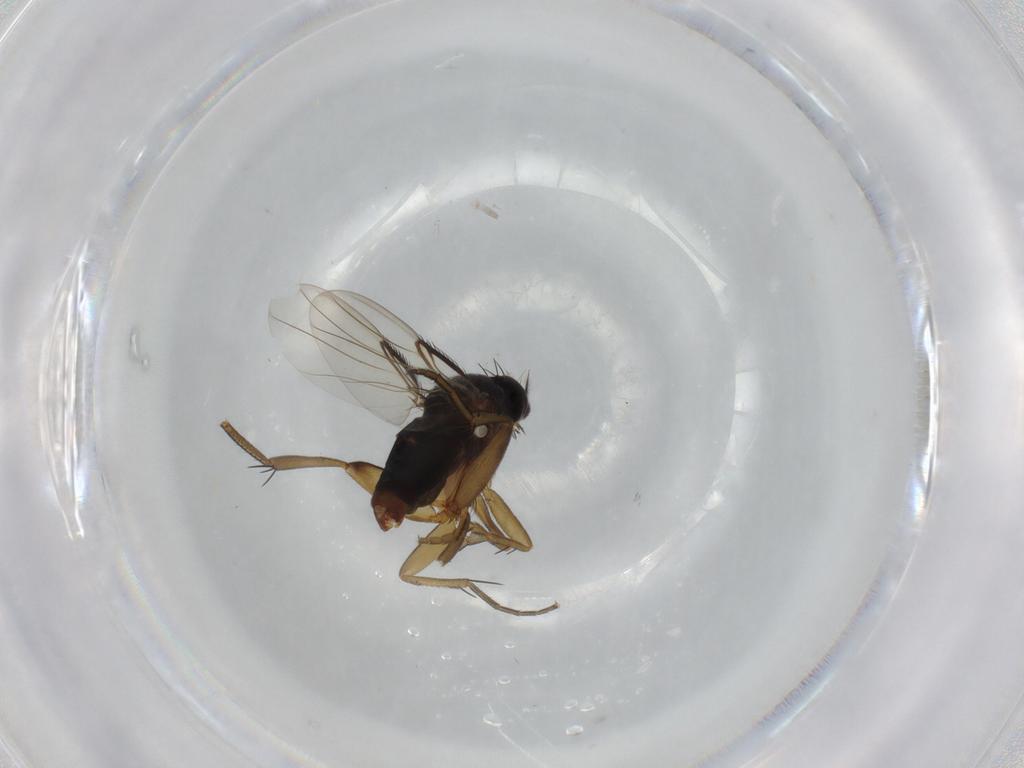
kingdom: Animalia
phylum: Arthropoda
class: Insecta
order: Diptera
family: Phoridae
